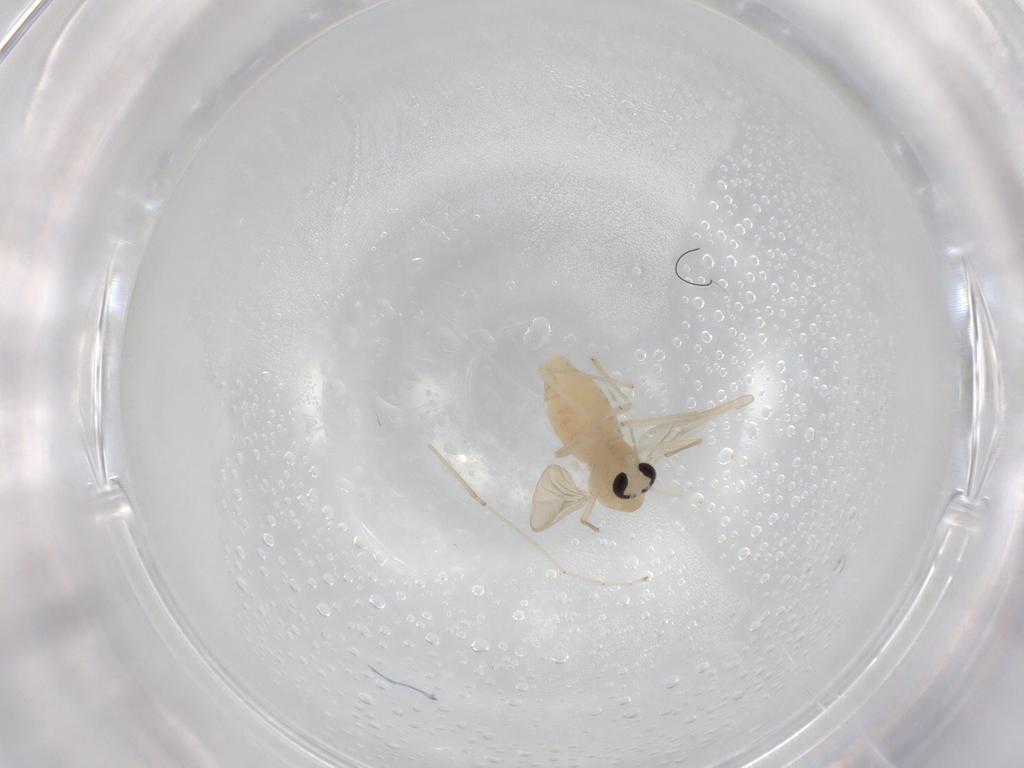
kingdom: Animalia
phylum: Arthropoda
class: Insecta
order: Diptera
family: Chironomidae
